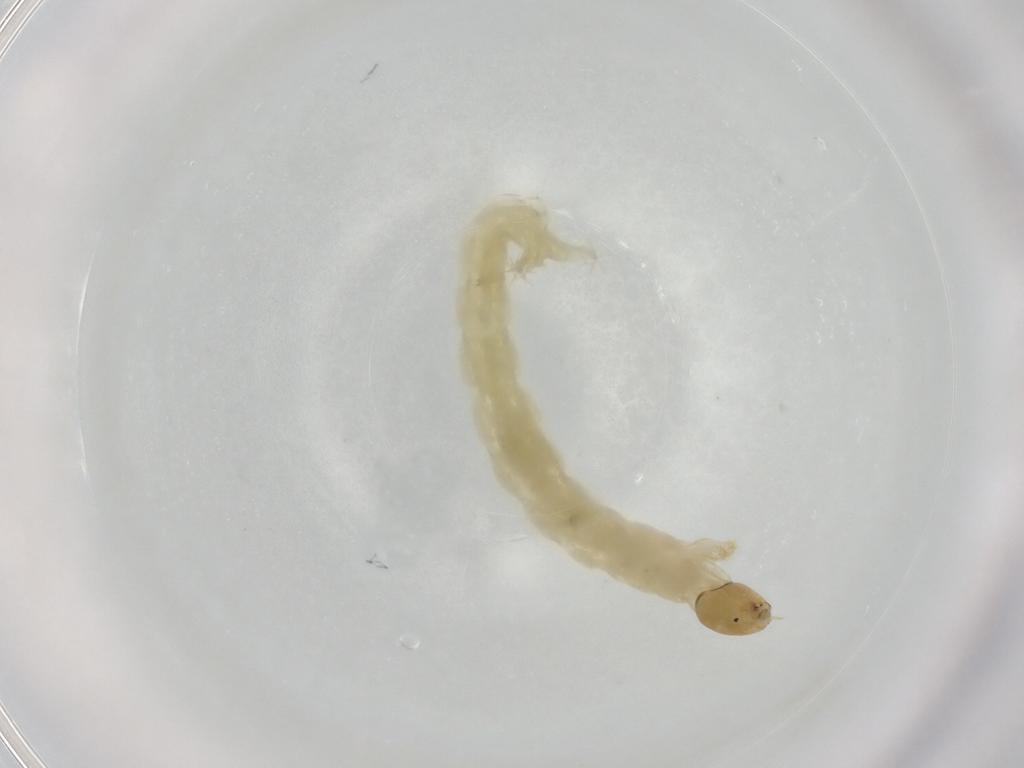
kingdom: Animalia
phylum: Arthropoda
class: Insecta
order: Diptera
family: Chironomidae
